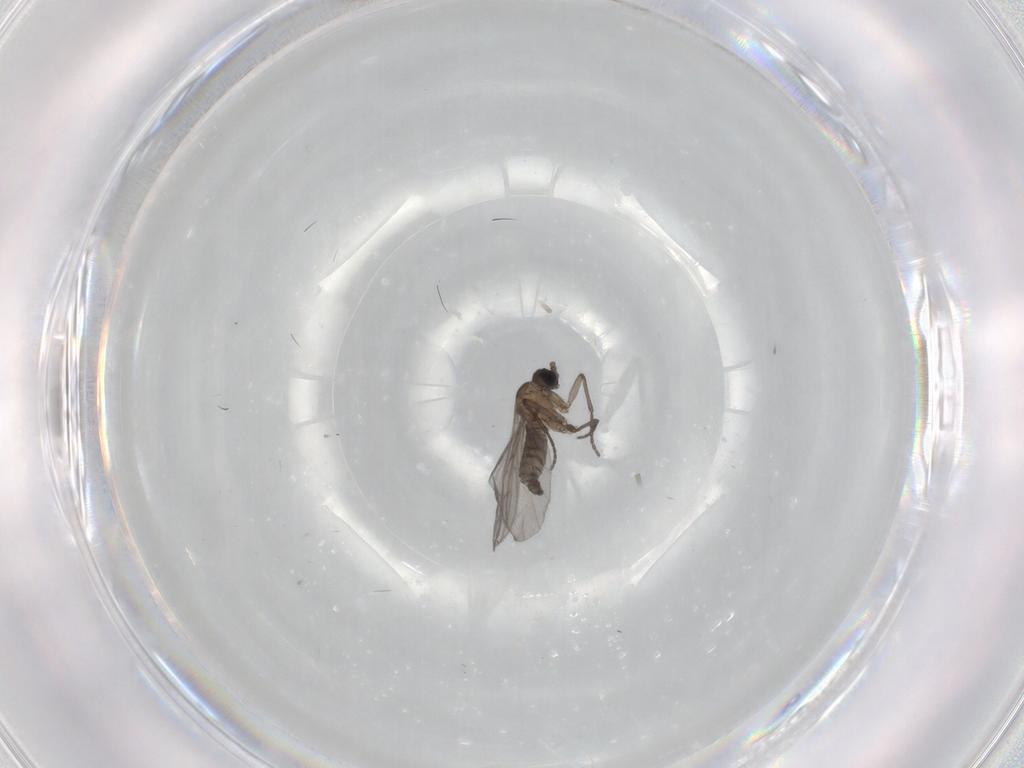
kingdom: Animalia
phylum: Arthropoda
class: Insecta
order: Diptera
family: Sciaridae
